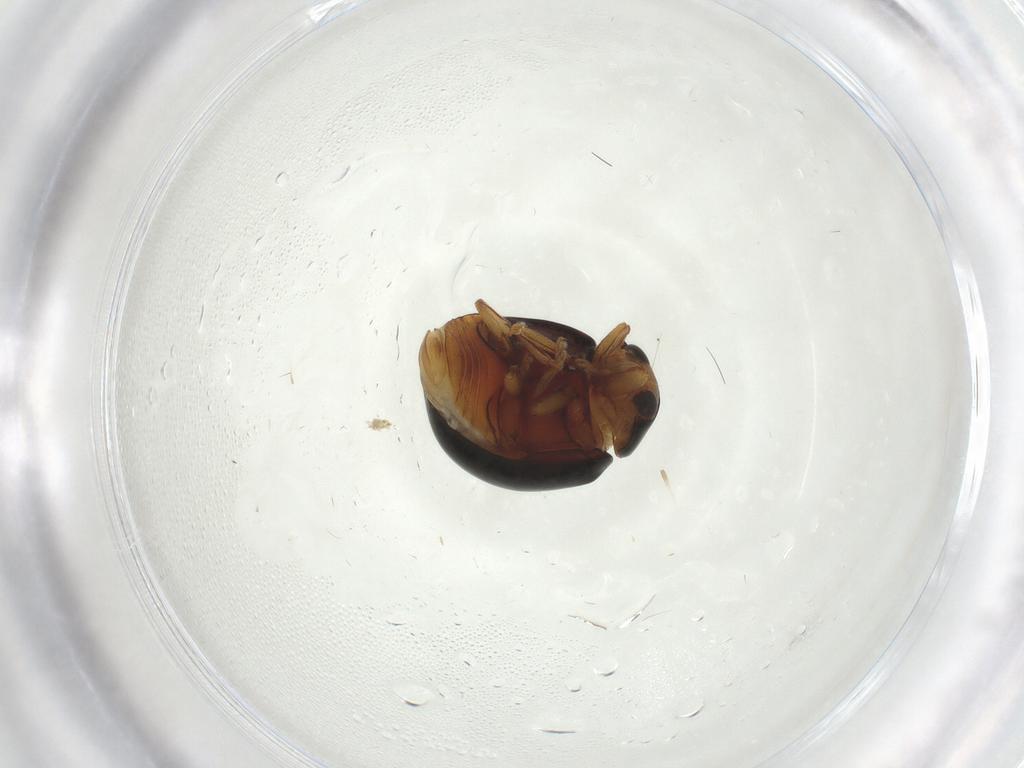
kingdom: Animalia
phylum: Arthropoda
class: Insecta
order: Coleoptera
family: Coccinellidae
